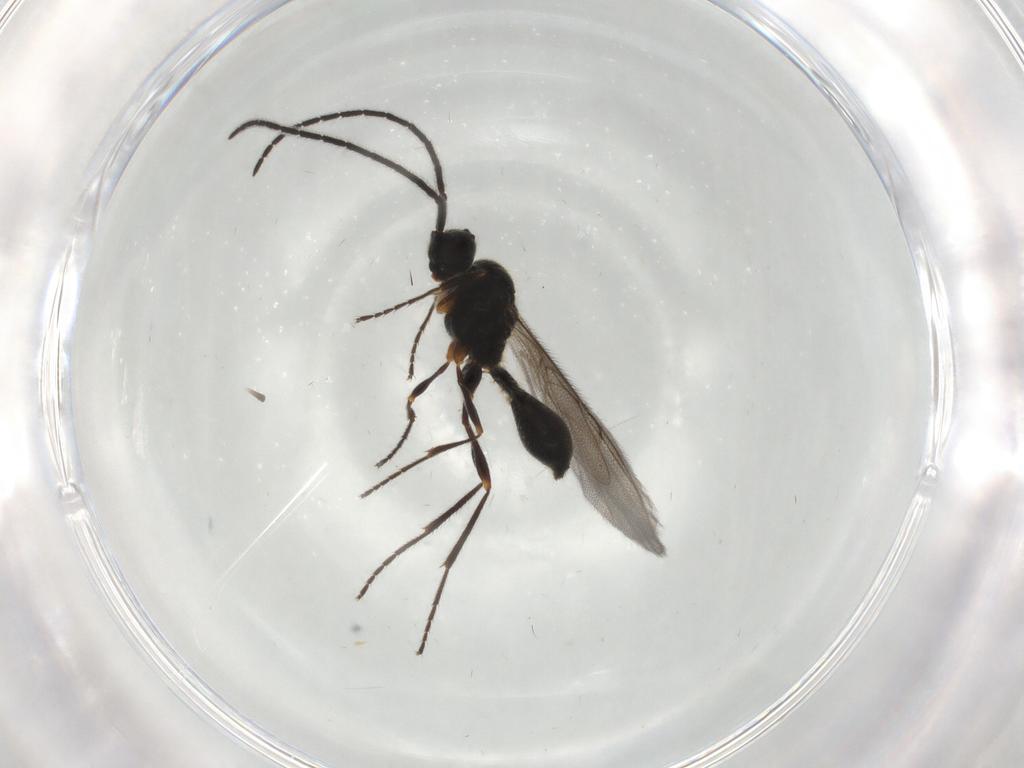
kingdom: Animalia
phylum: Arthropoda
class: Insecta
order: Hymenoptera
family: Diapriidae
